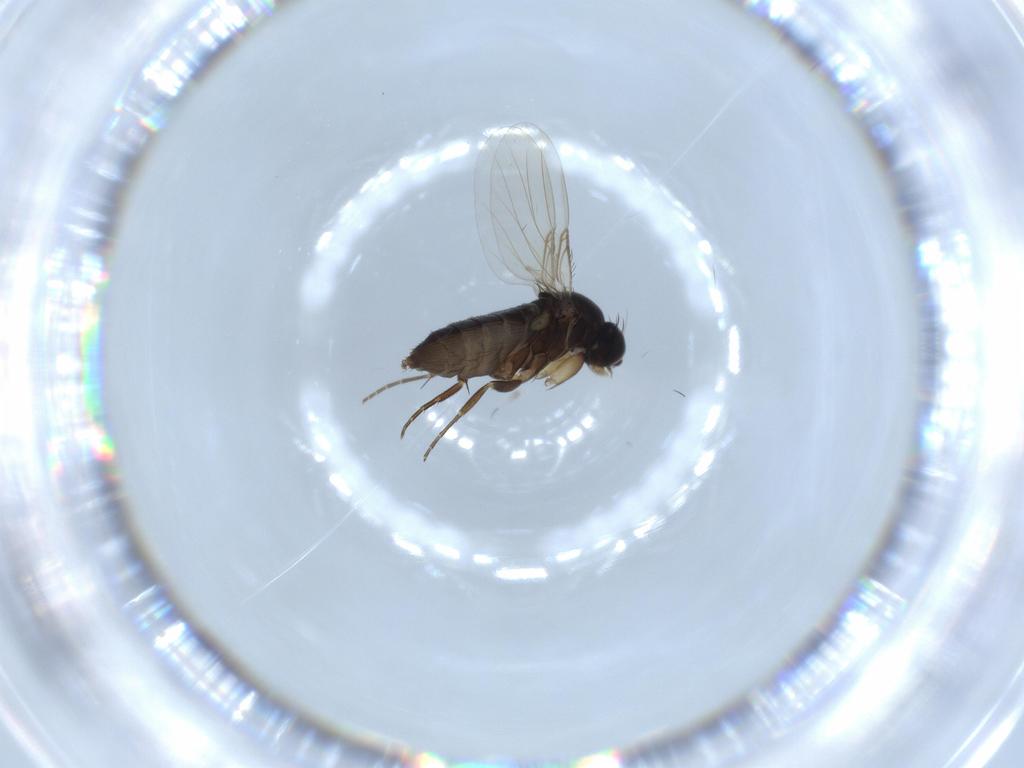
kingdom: Animalia
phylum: Arthropoda
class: Insecta
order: Diptera
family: Phoridae
